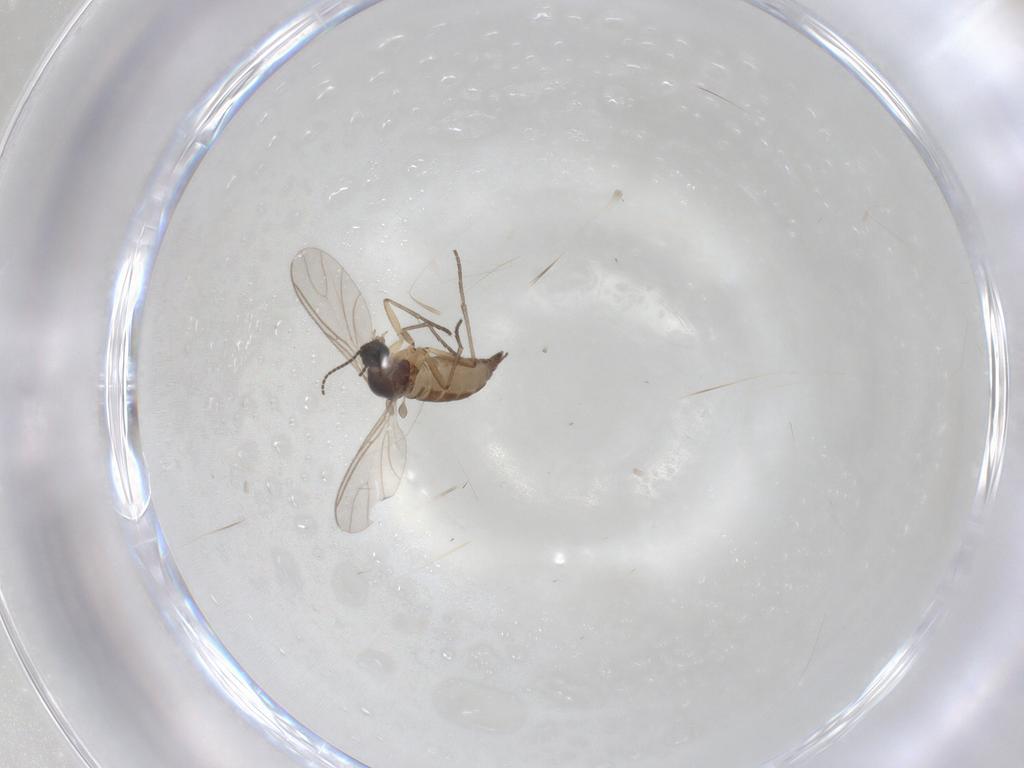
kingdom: Animalia
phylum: Arthropoda
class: Insecta
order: Diptera
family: Sciaridae
